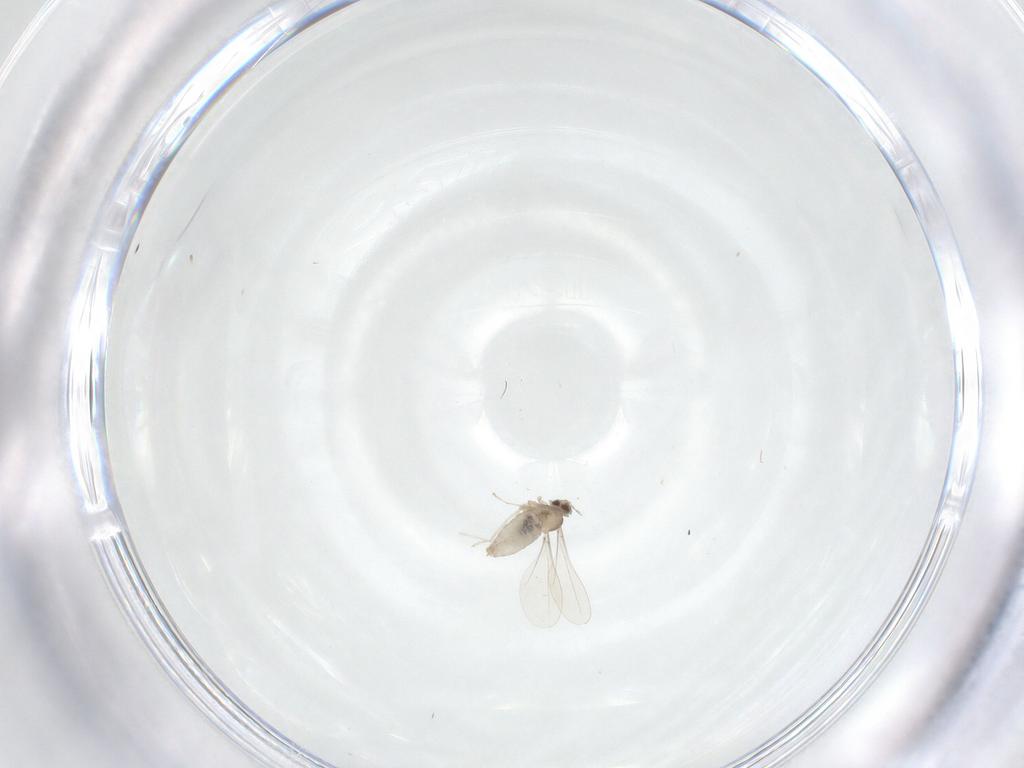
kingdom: Animalia
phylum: Arthropoda
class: Insecta
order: Diptera
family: Cecidomyiidae
